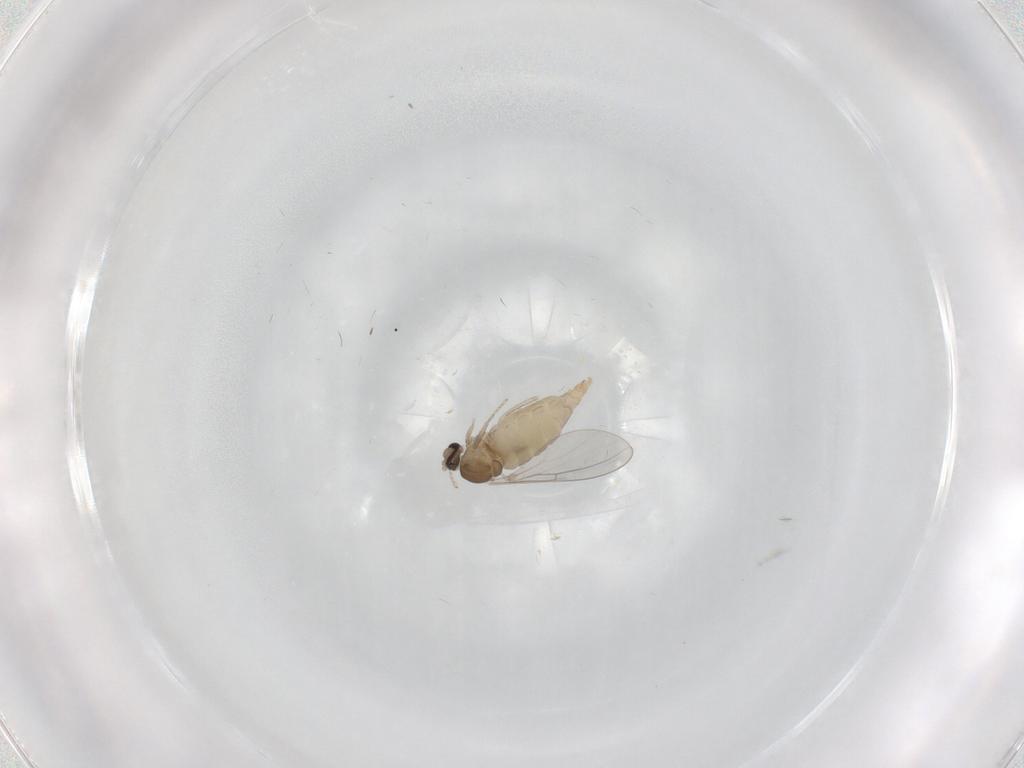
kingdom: Animalia
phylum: Arthropoda
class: Insecta
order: Diptera
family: Cecidomyiidae
